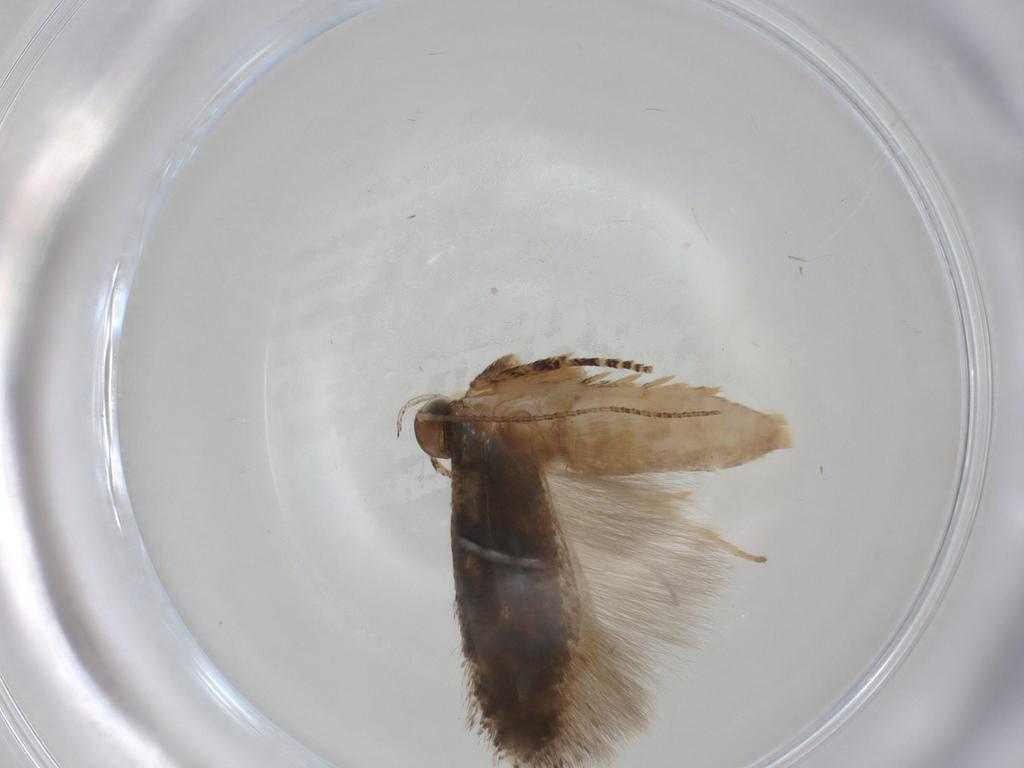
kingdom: Animalia
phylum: Arthropoda
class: Insecta
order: Lepidoptera
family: Gelechiidae
